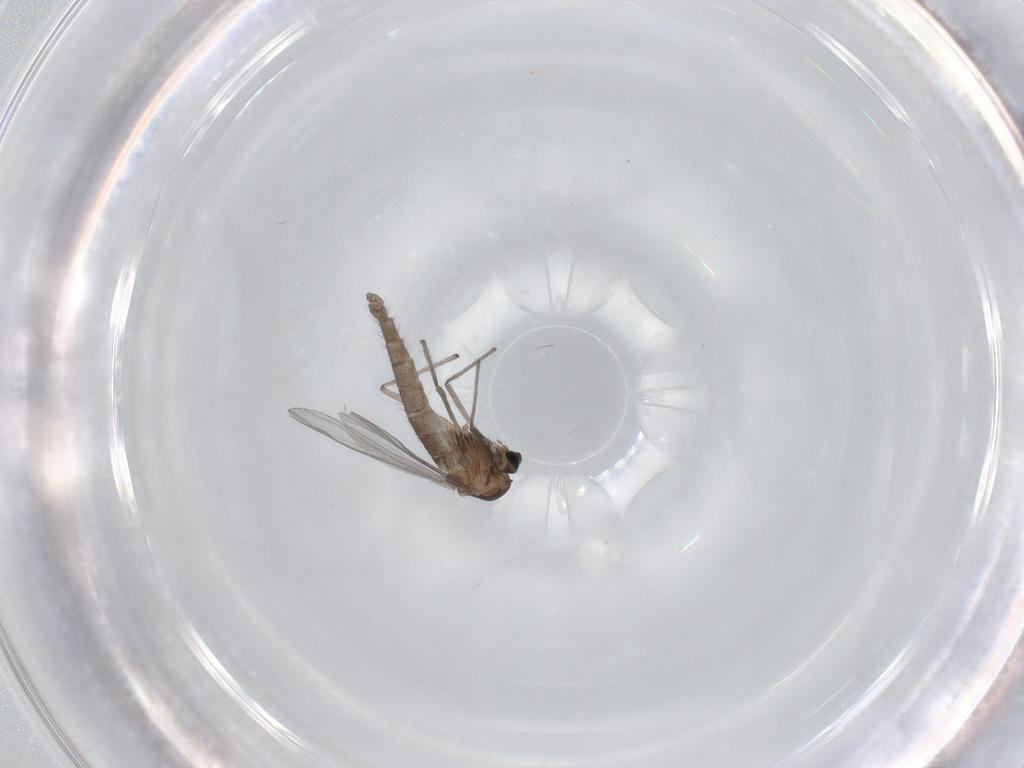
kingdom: Animalia
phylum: Arthropoda
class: Insecta
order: Diptera
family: Chironomidae
